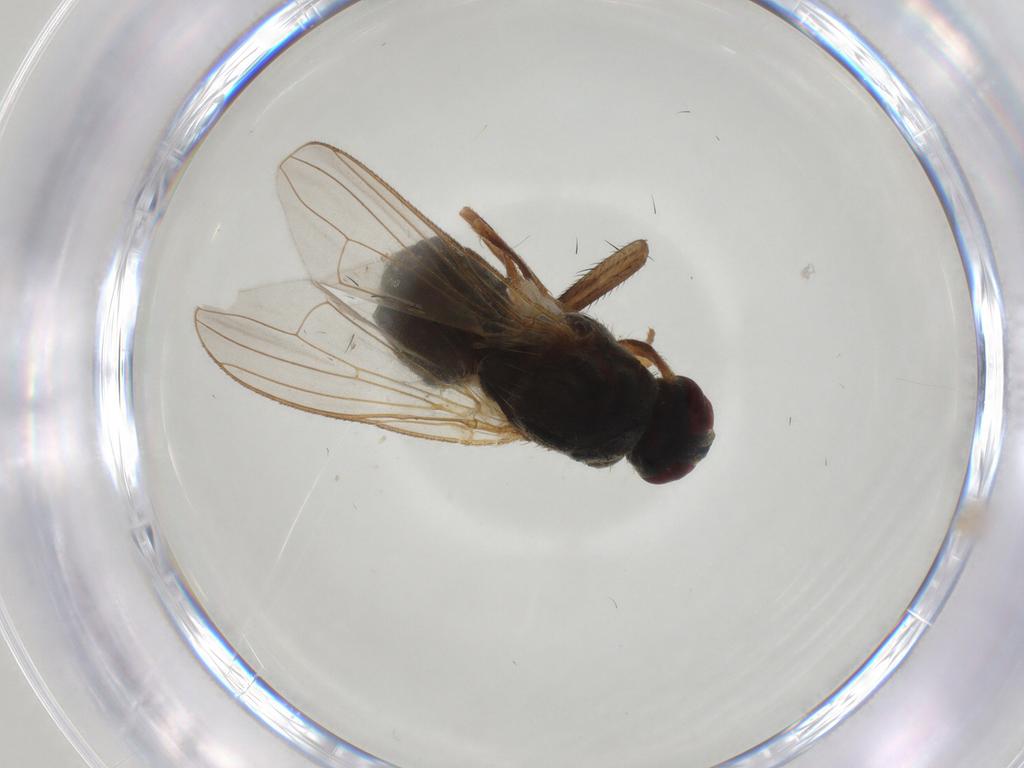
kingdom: Animalia
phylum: Arthropoda
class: Insecta
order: Diptera
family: Muscidae
